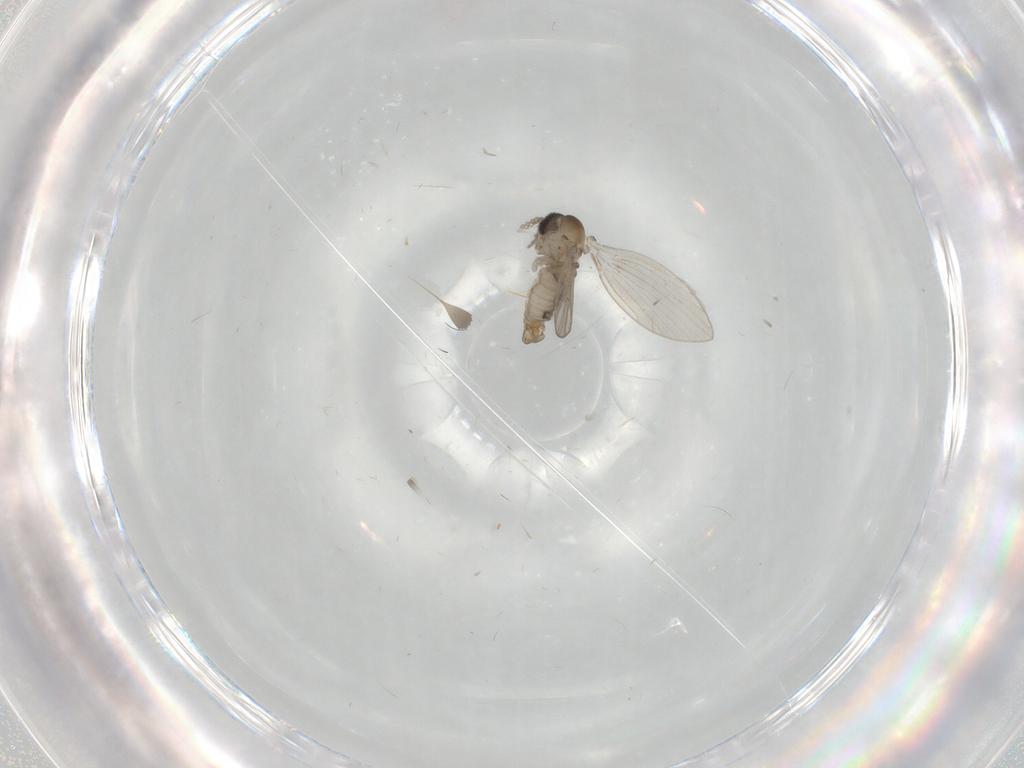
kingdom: Animalia
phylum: Arthropoda
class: Insecta
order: Diptera
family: Psychodidae
